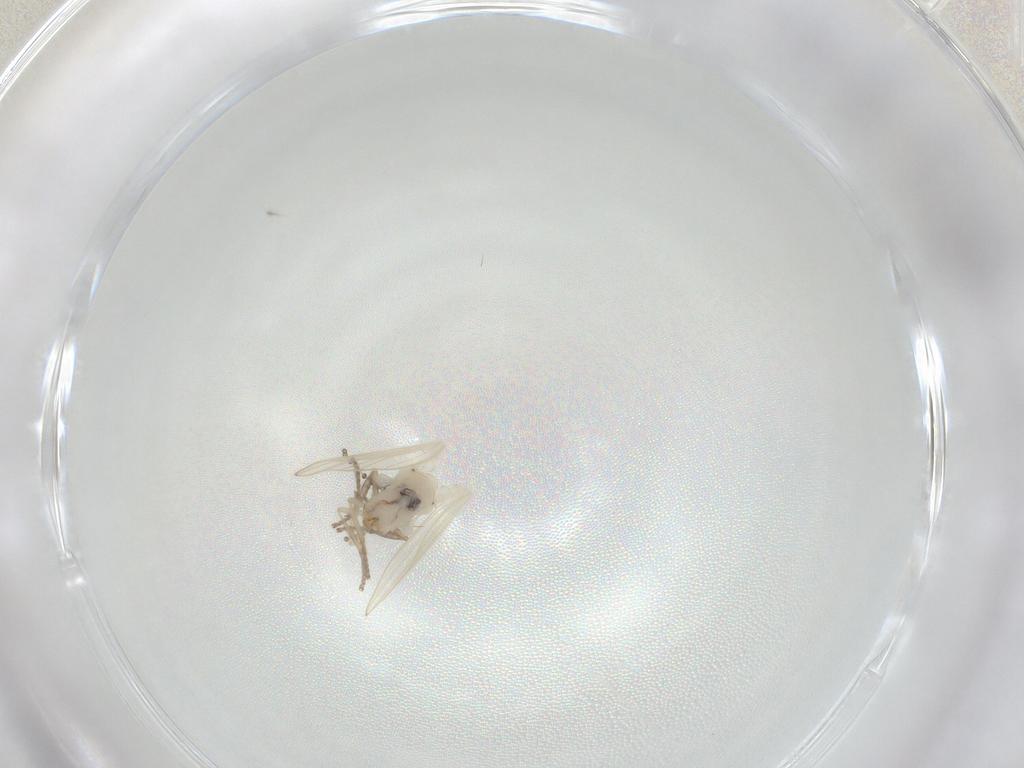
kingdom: Animalia
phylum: Arthropoda
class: Insecta
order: Diptera
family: Psychodidae
